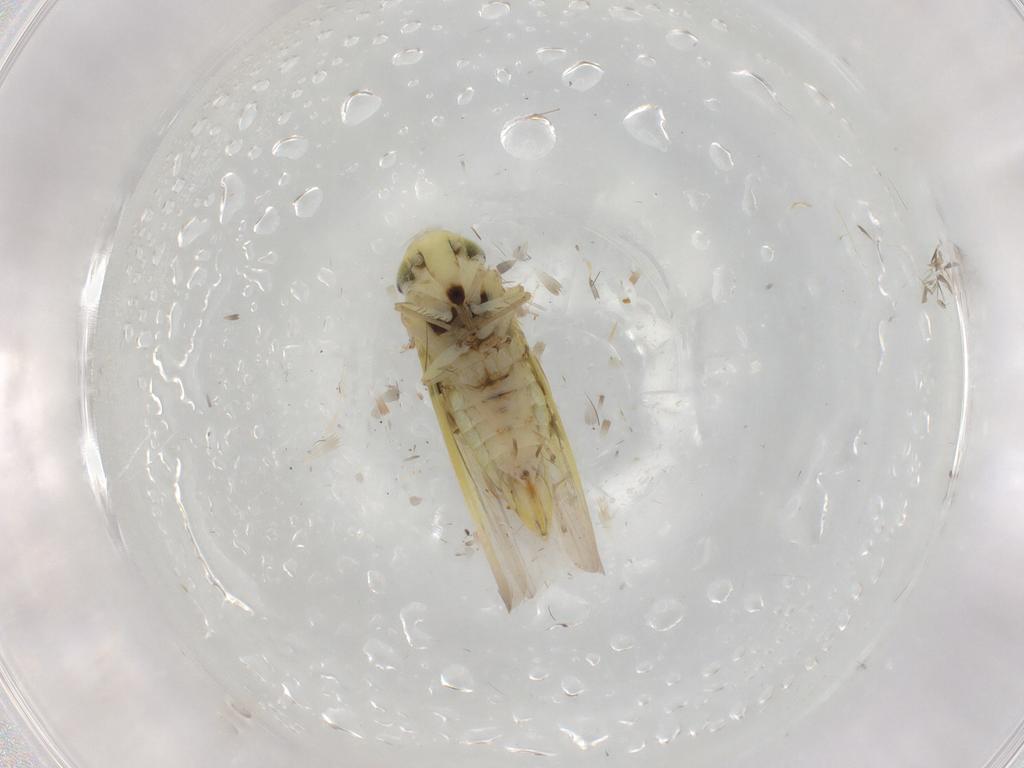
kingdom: Animalia
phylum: Arthropoda
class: Insecta
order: Hemiptera
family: Cicadellidae
